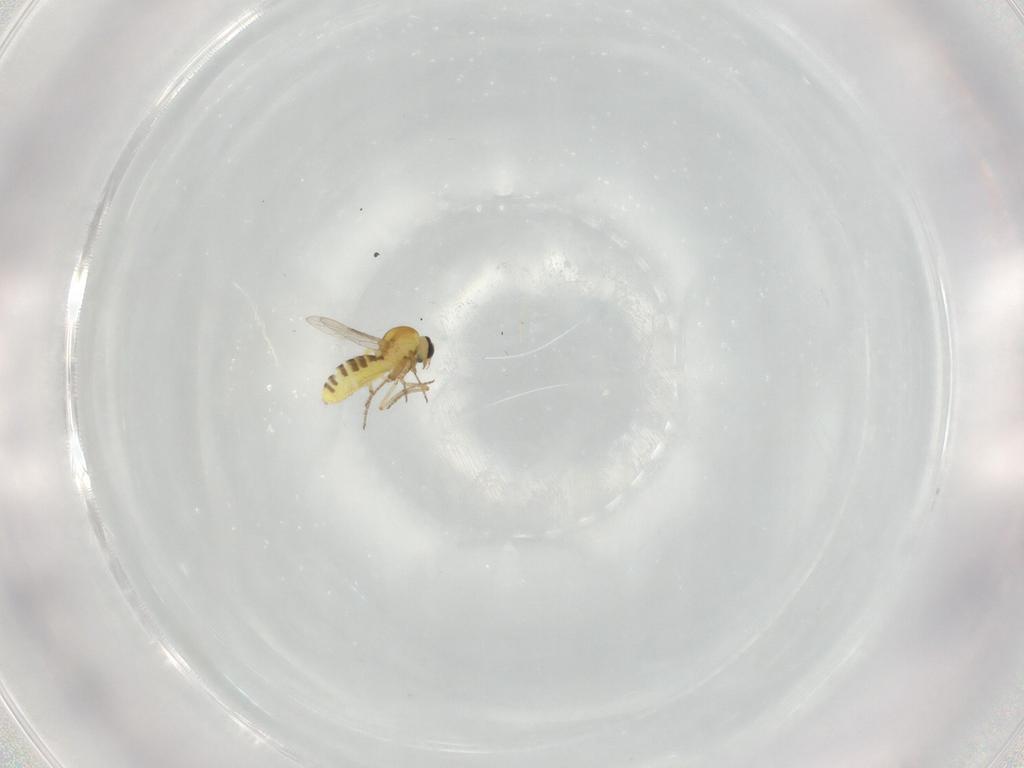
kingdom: Animalia
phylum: Arthropoda
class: Insecta
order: Diptera
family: Ceratopogonidae
